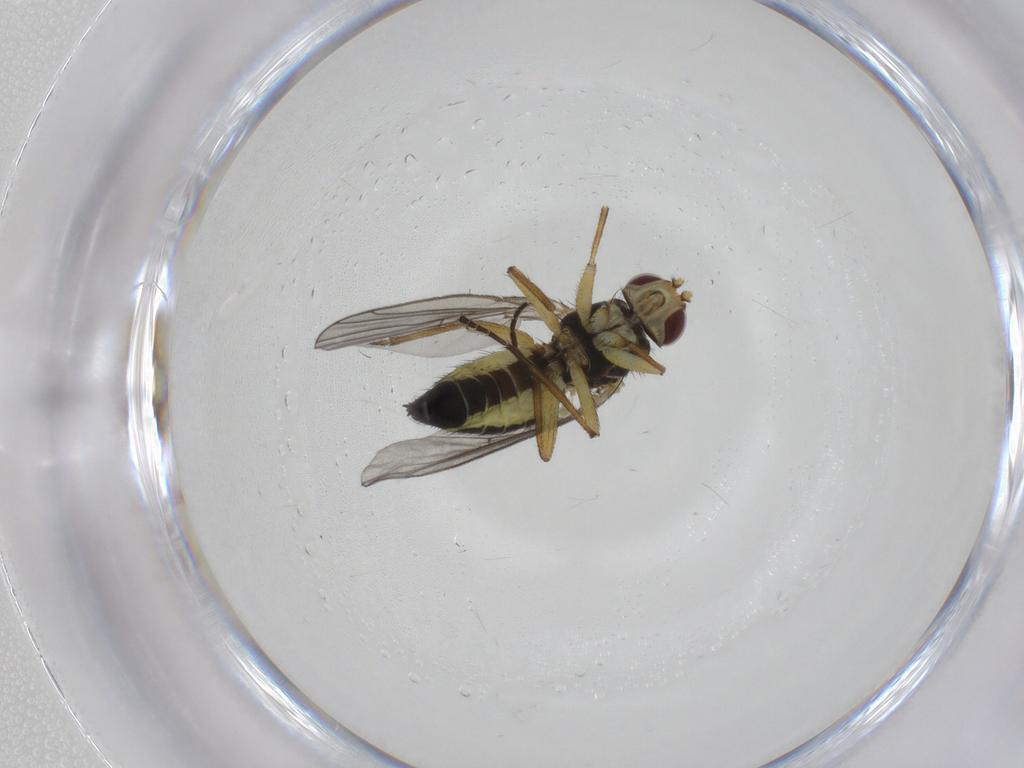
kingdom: Animalia
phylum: Arthropoda
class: Insecta
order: Diptera
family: Agromyzidae
